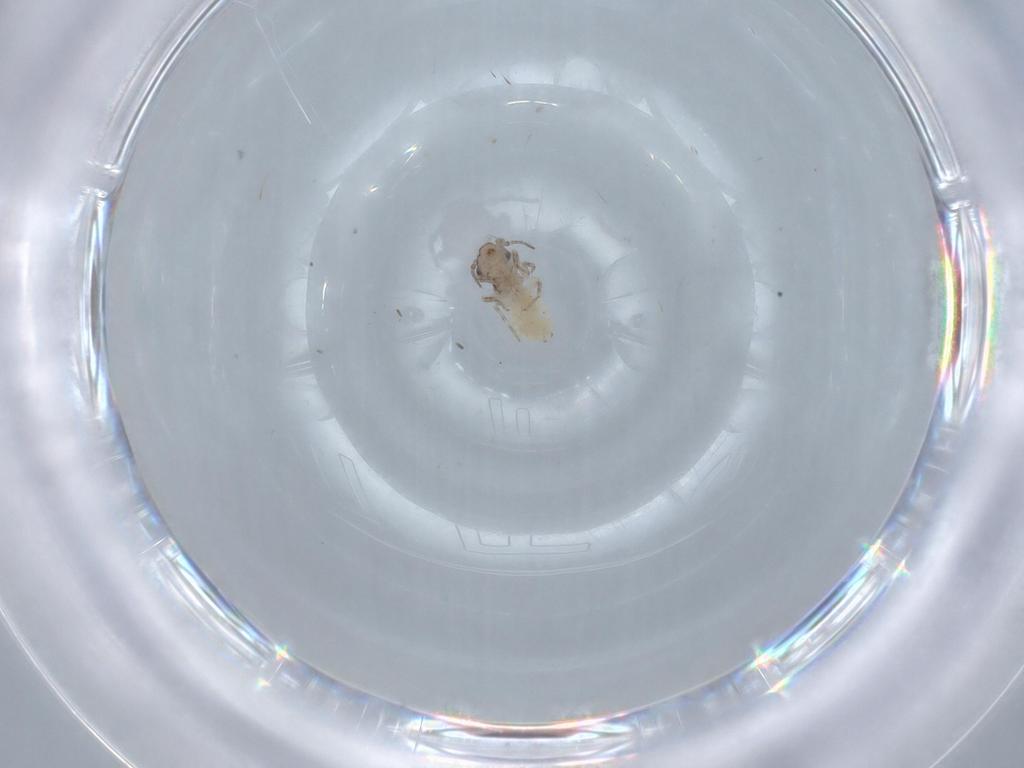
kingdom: Animalia
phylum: Arthropoda
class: Insecta
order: Psocodea
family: Lepidopsocidae
